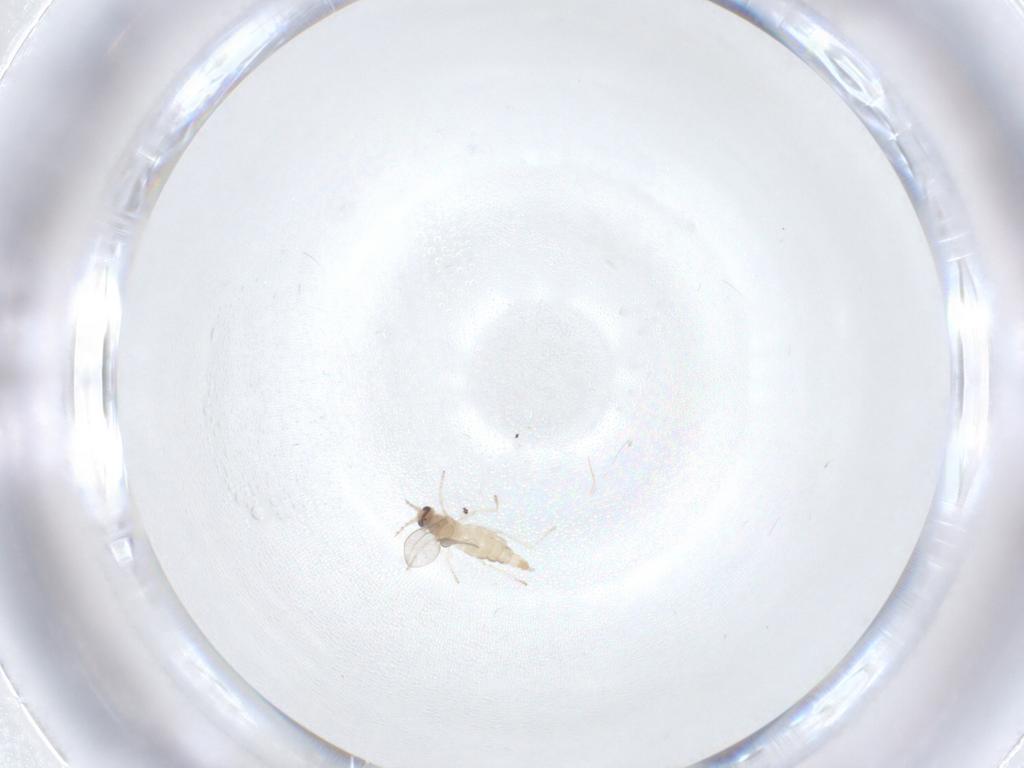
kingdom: Animalia
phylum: Arthropoda
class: Insecta
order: Diptera
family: Cecidomyiidae
